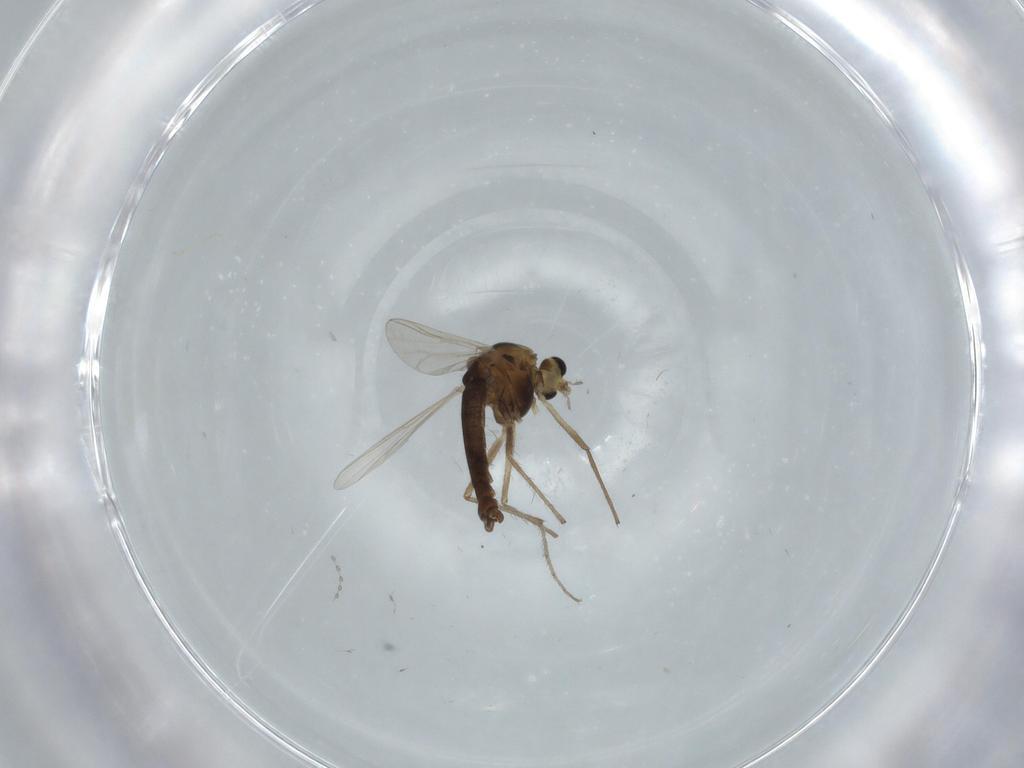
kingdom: Animalia
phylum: Arthropoda
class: Insecta
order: Diptera
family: Chironomidae
